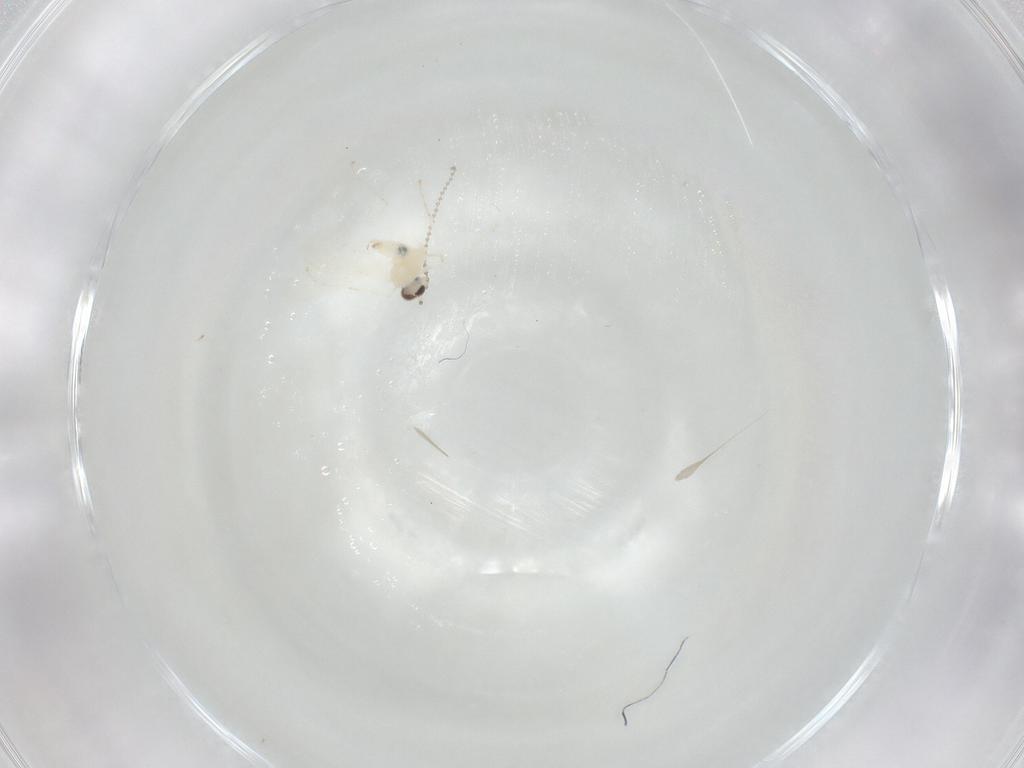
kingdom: Animalia
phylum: Arthropoda
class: Insecta
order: Diptera
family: Cecidomyiidae
